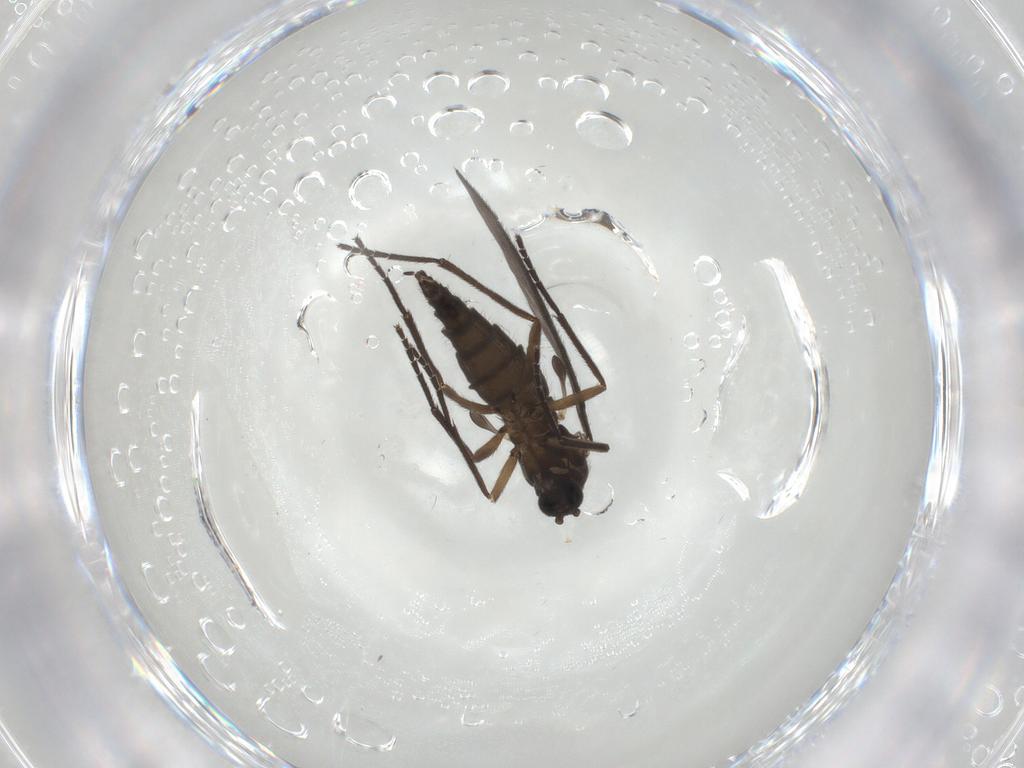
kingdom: Animalia
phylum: Arthropoda
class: Insecta
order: Diptera
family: Sciaridae
